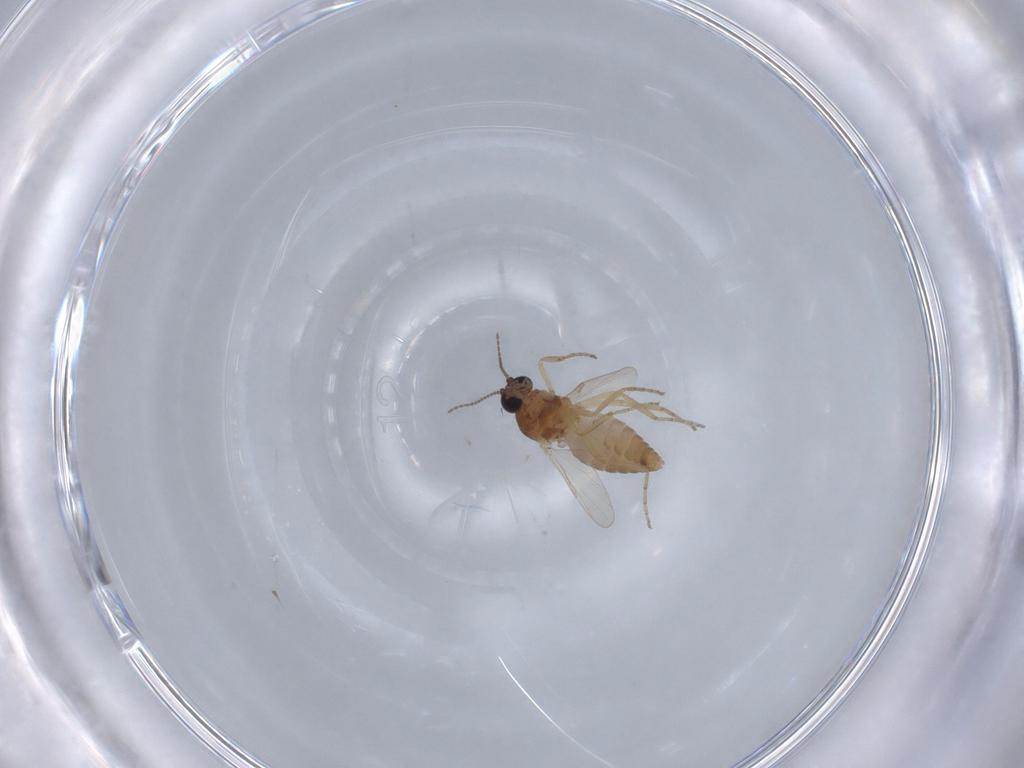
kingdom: Animalia
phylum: Arthropoda
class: Insecta
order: Diptera
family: Ceratopogonidae
